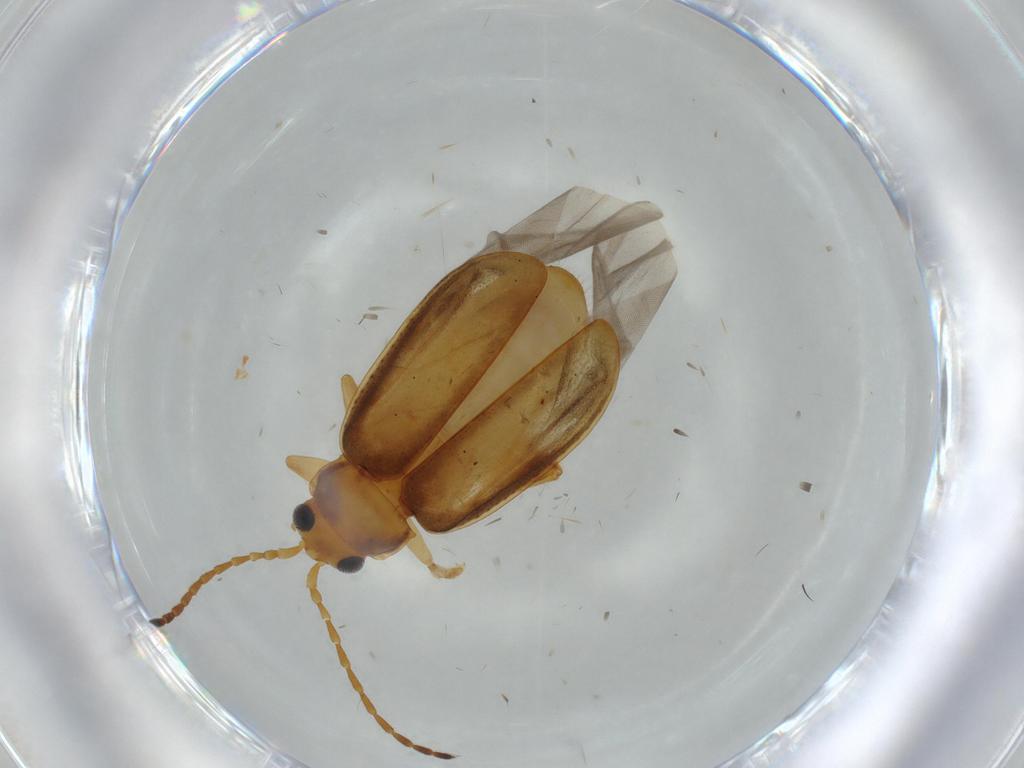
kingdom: Animalia
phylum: Arthropoda
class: Insecta
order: Coleoptera
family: Chrysomelidae
